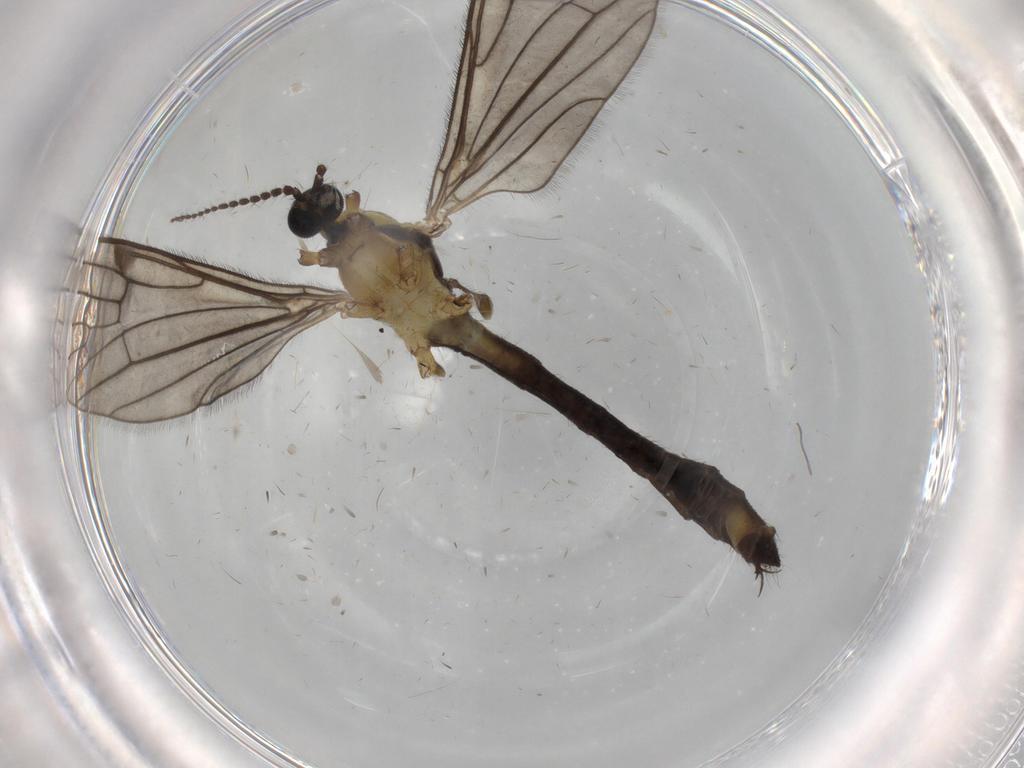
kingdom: Animalia
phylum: Arthropoda
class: Insecta
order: Diptera
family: Limoniidae
